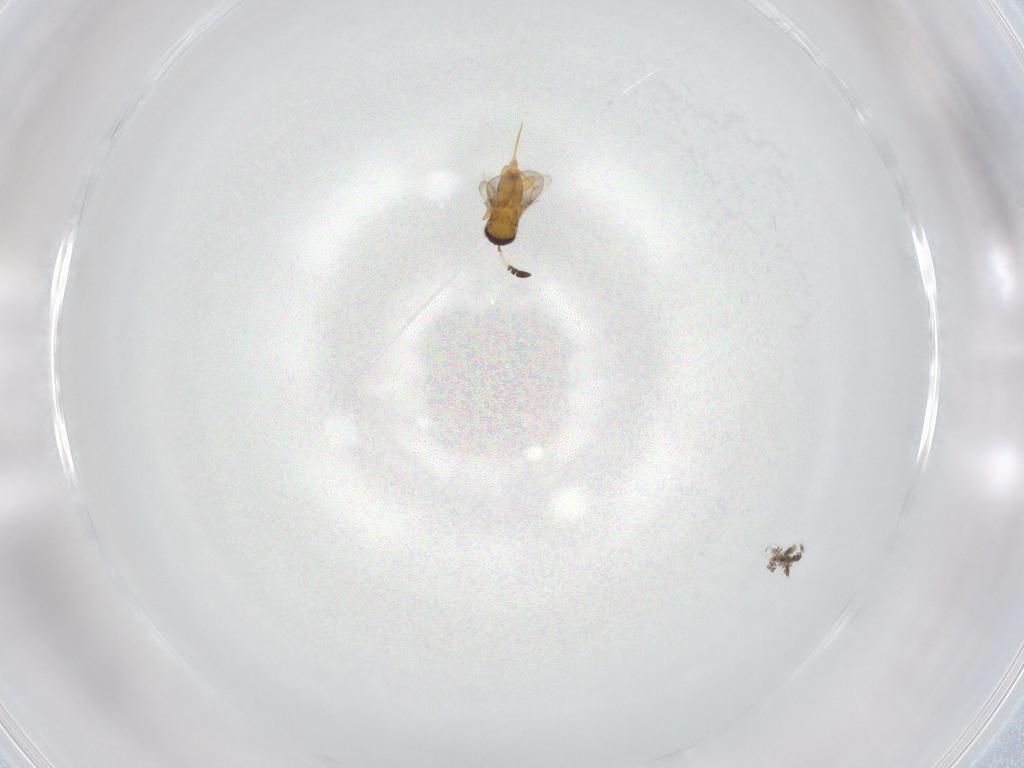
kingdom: Animalia
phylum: Arthropoda
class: Insecta
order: Hymenoptera
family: Ceraphronidae
